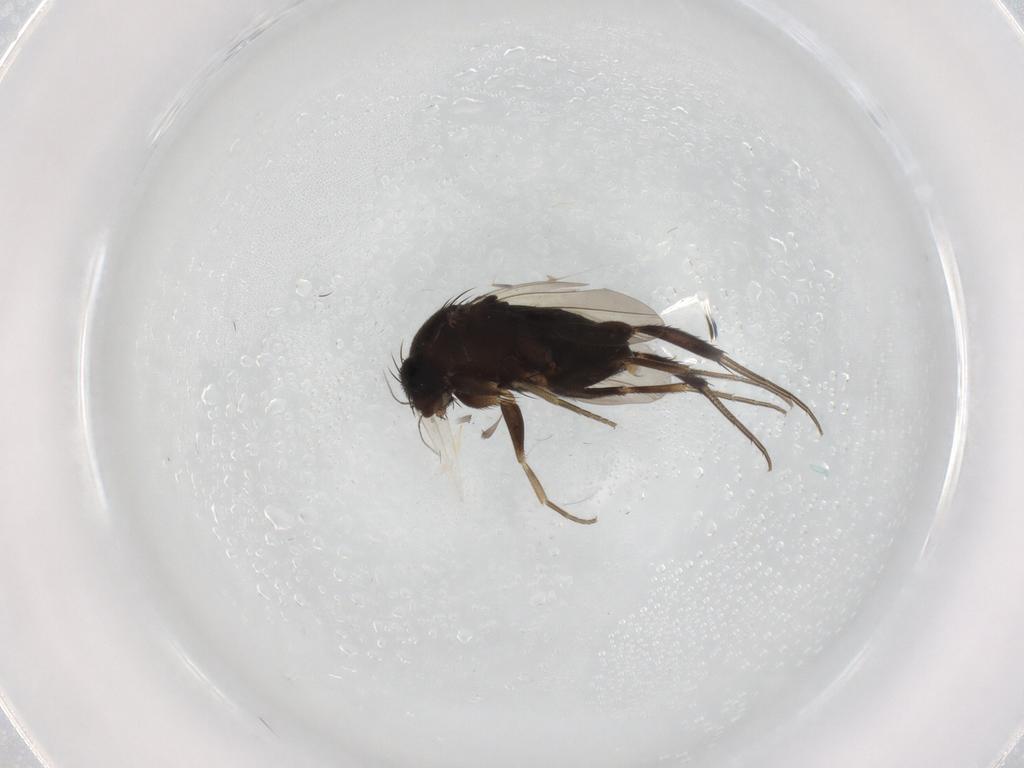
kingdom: Animalia
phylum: Arthropoda
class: Insecta
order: Diptera
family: Phoridae
